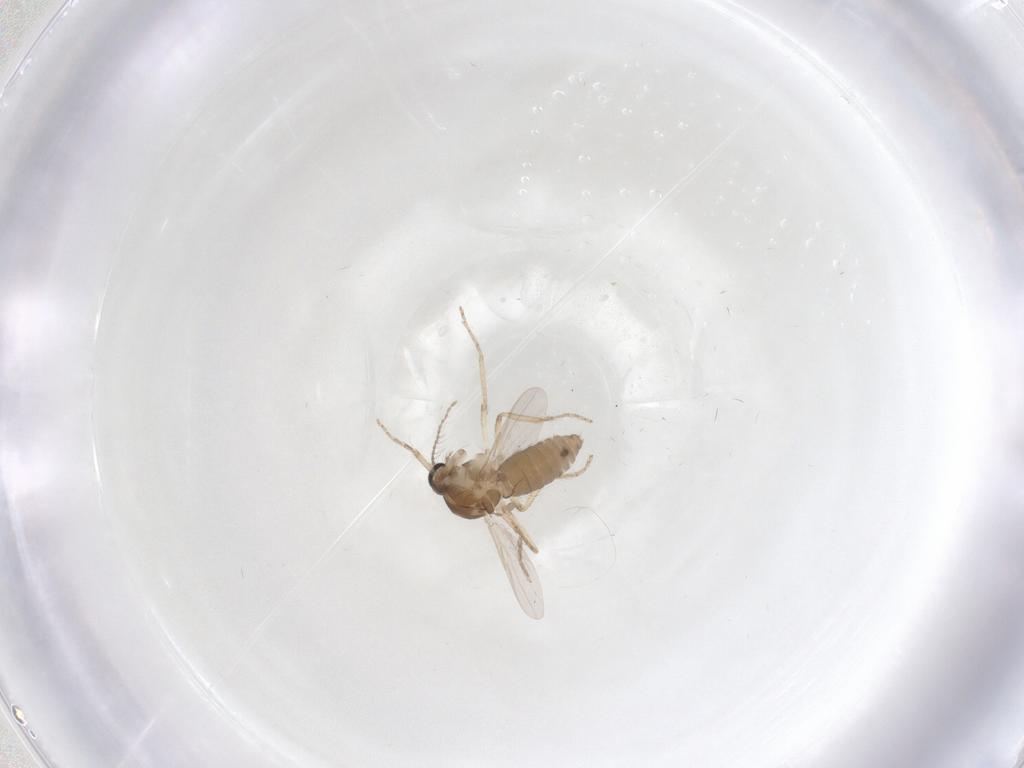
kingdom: Animalia
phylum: Arthropoda
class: Insecta
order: Diptera
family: Ceratopogonidae
